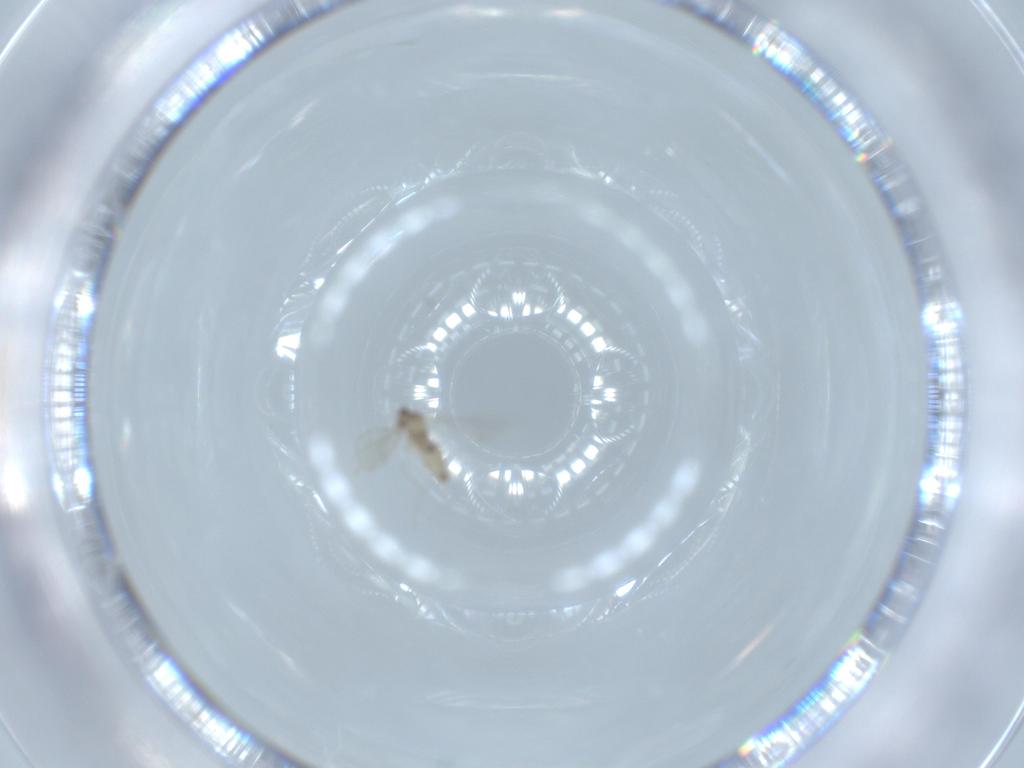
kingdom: Animalia
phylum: Arthropoda
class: Insecta
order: Diptera
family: Cecidomyiidae
